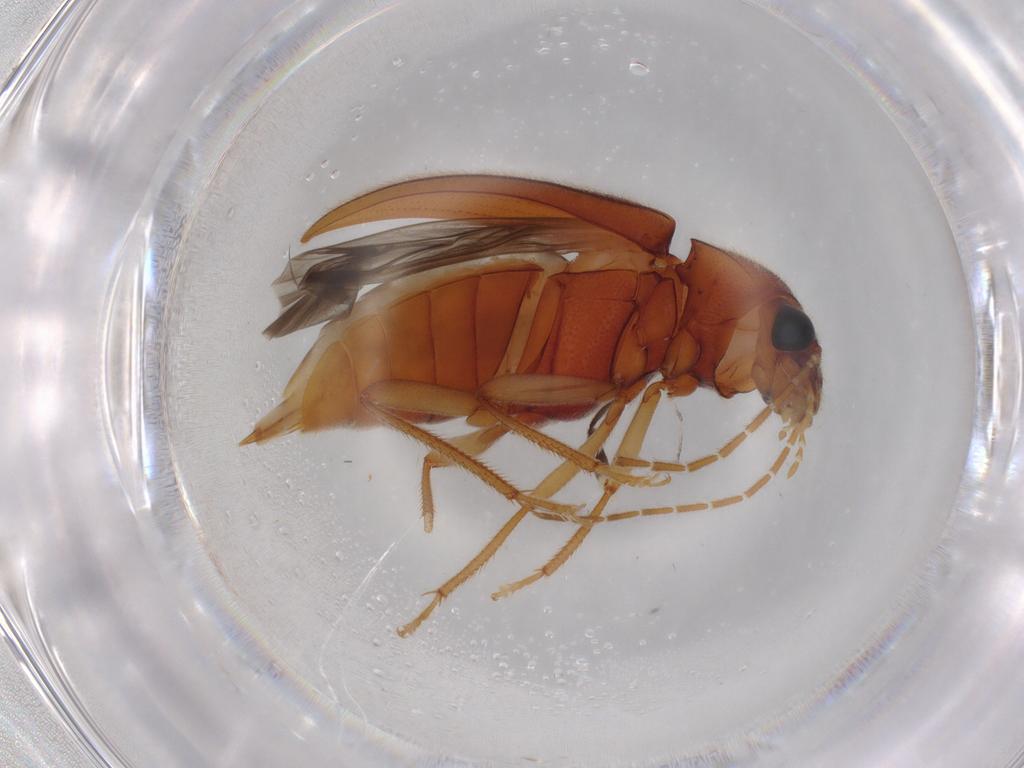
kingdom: Animalia
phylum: Arthropoda
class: Insecta
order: Coleoptera
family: Ptilodactylidae
